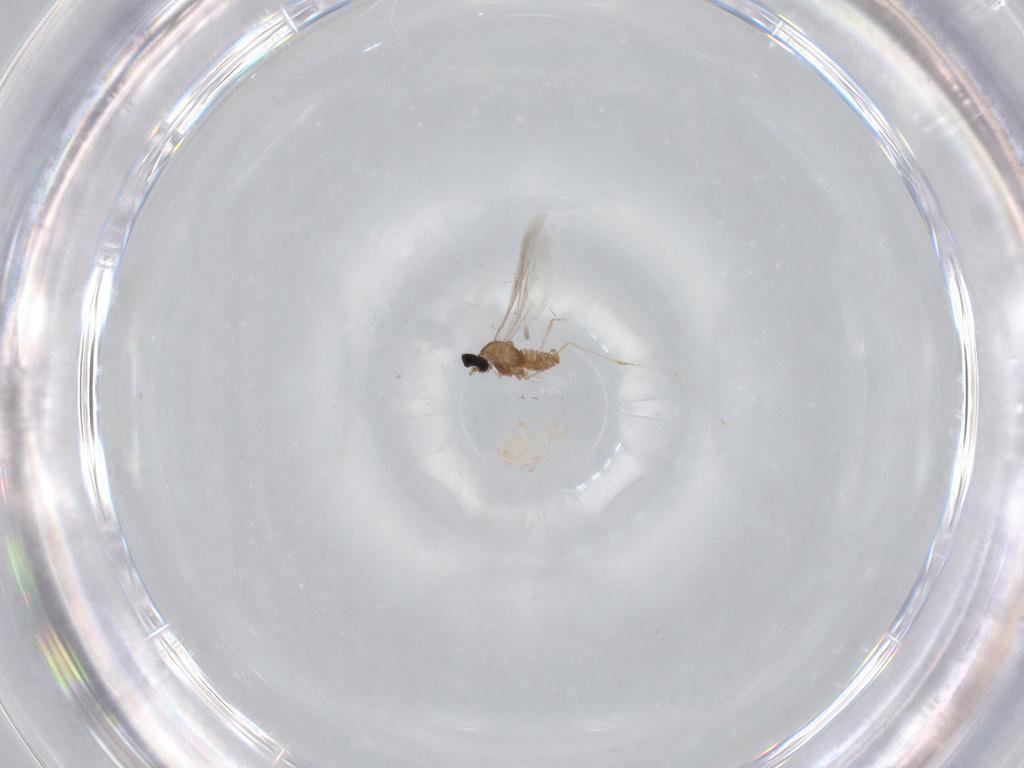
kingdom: Animalia
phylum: Arthropoda
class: Insecta
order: Diptera
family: Cecidomyiidae
